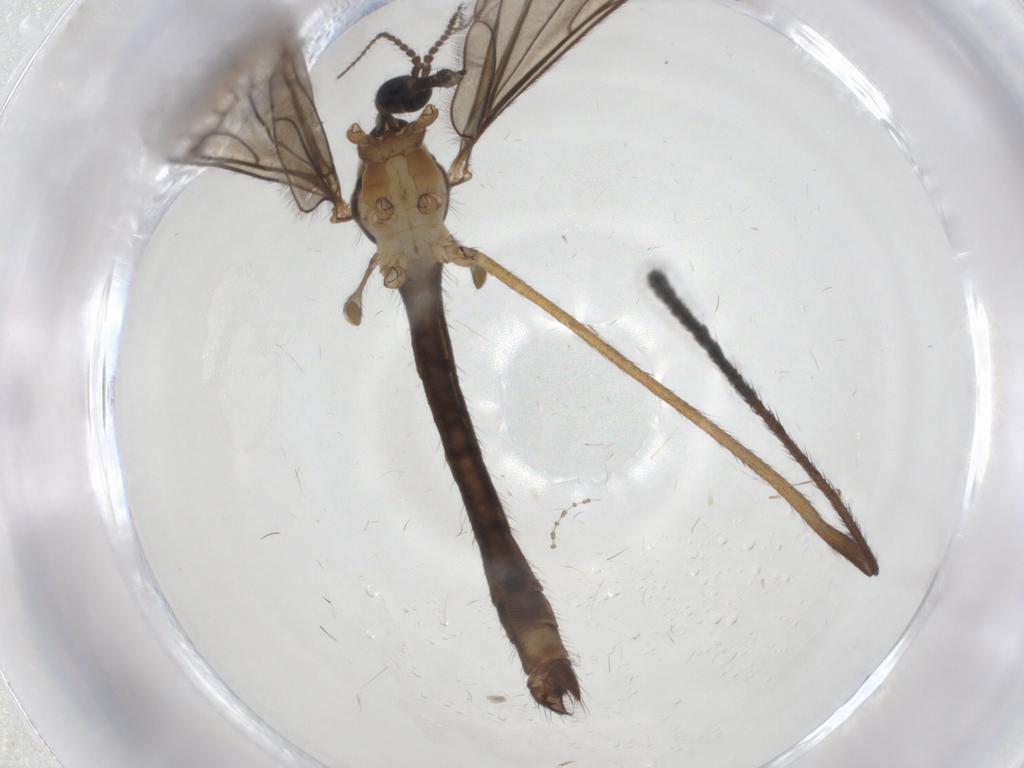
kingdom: Animalia
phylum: Arthropoda
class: Insecta
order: Diptera
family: Limoniidae
